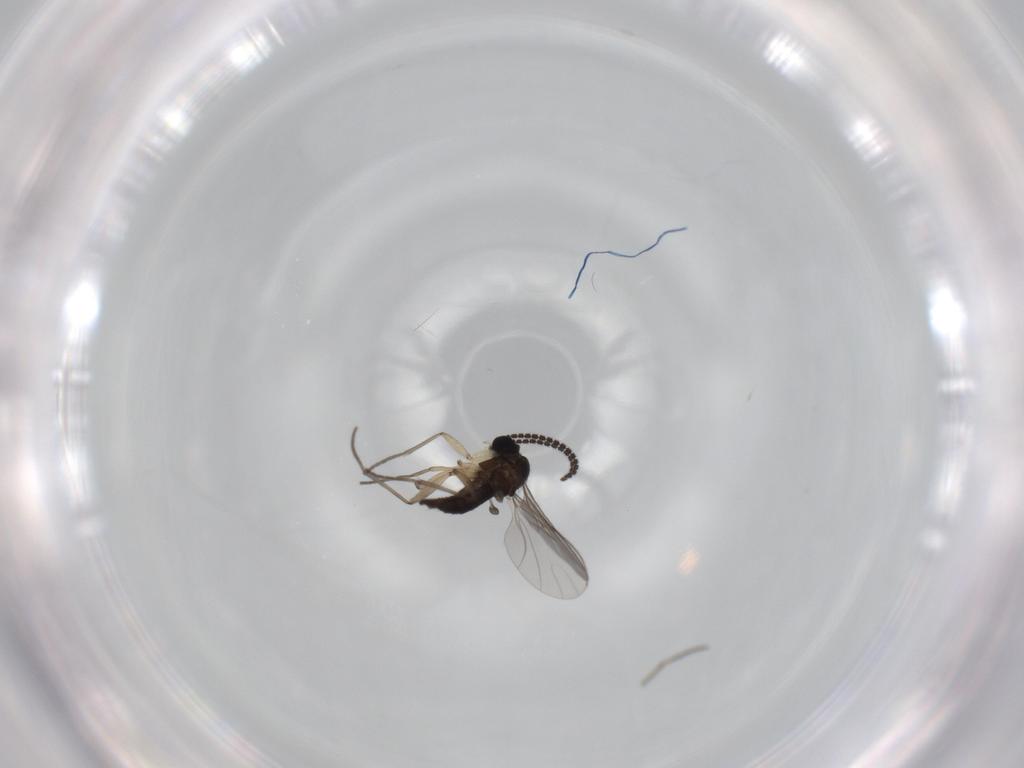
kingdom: Animalia
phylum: Arthropoda
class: Insecta
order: Diptera
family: Sciaridae
